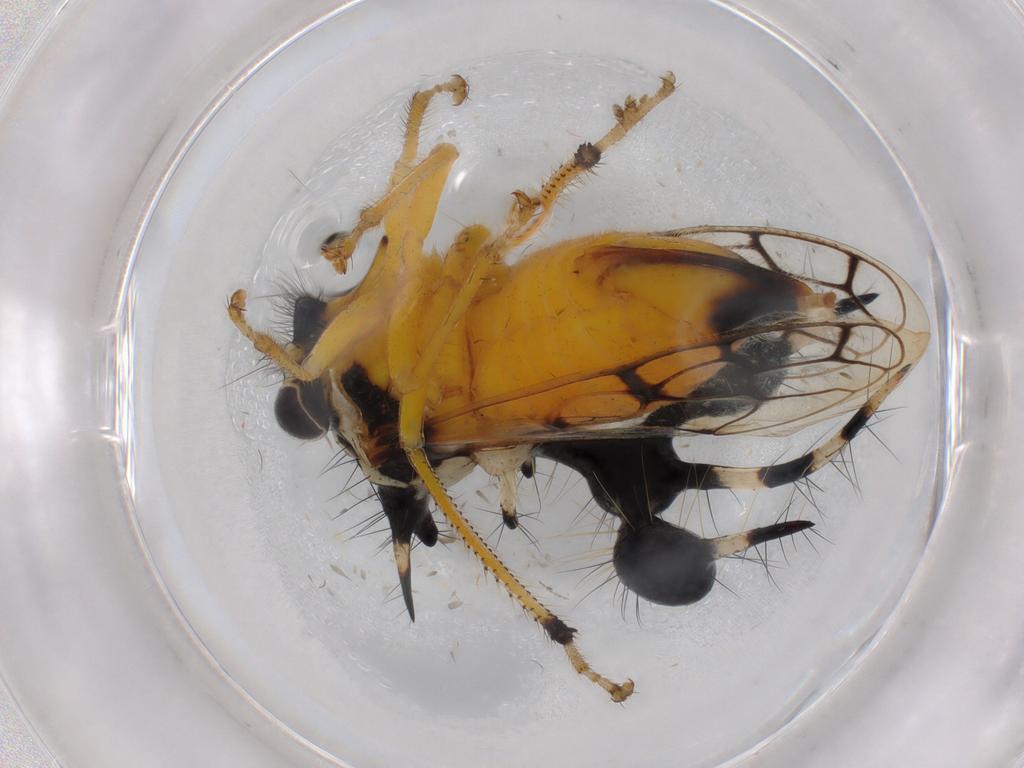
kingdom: Animalia
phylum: Arthropoda
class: Insecta
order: Hemiptera
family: Membracidae
